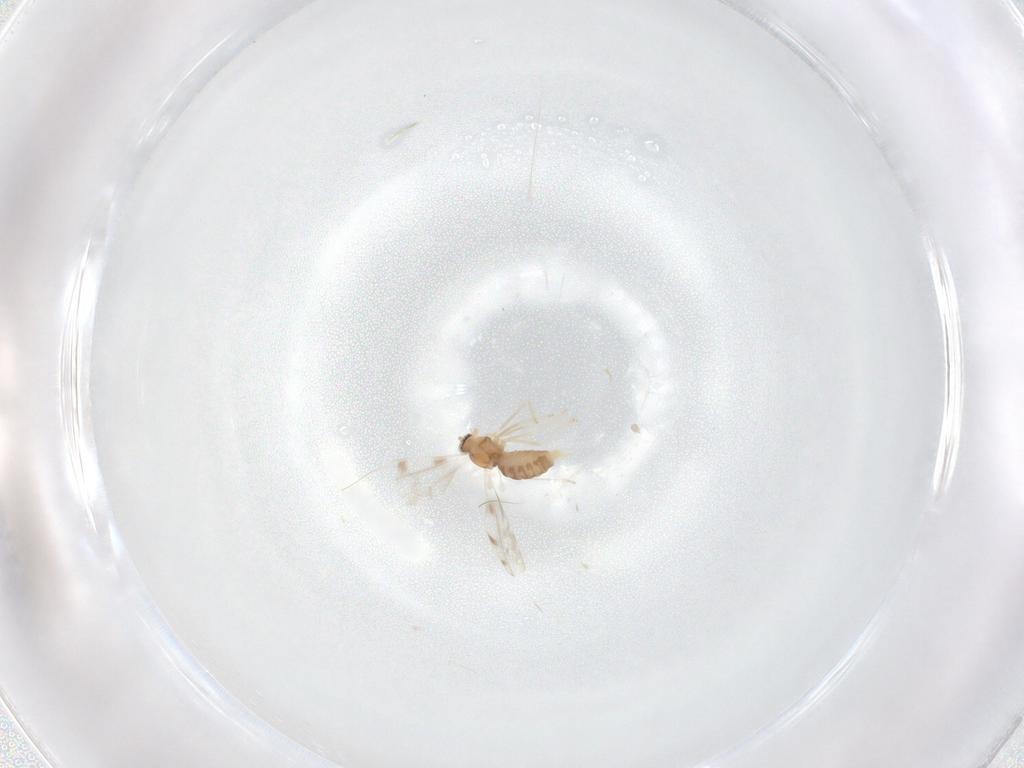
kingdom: Animalia
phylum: Arthropoda
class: Insecta
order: Diptera
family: Cecidomyiidae
